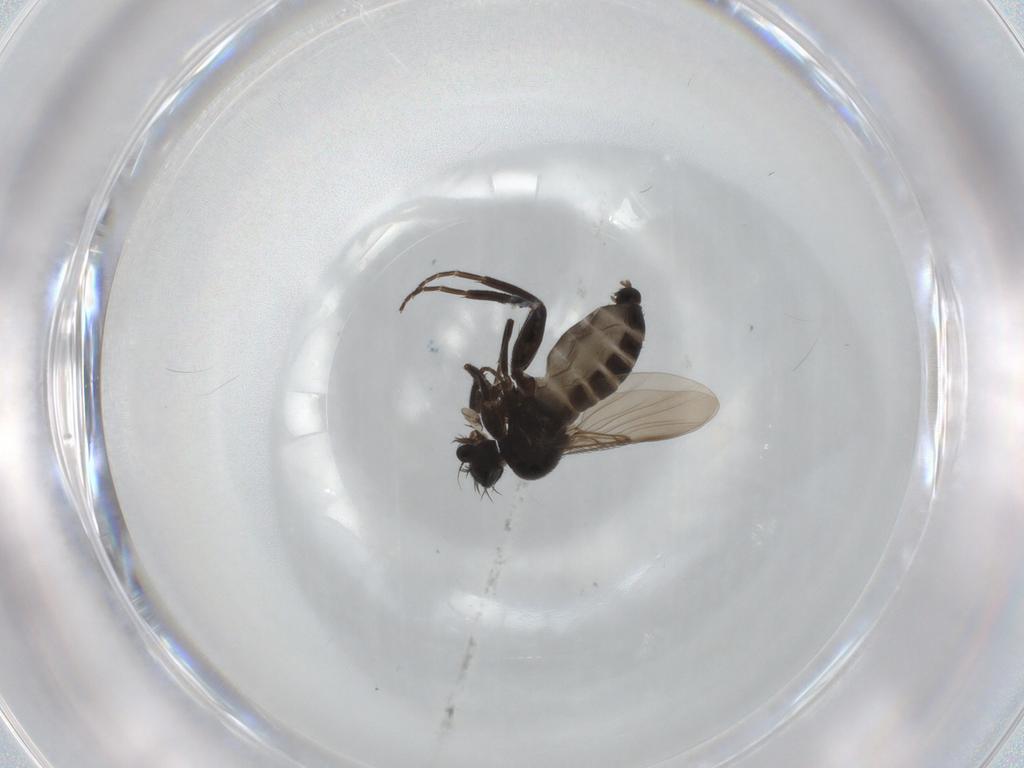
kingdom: Animalia
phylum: Arthropoda
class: Insecta
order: Diptera
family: Phoridae
